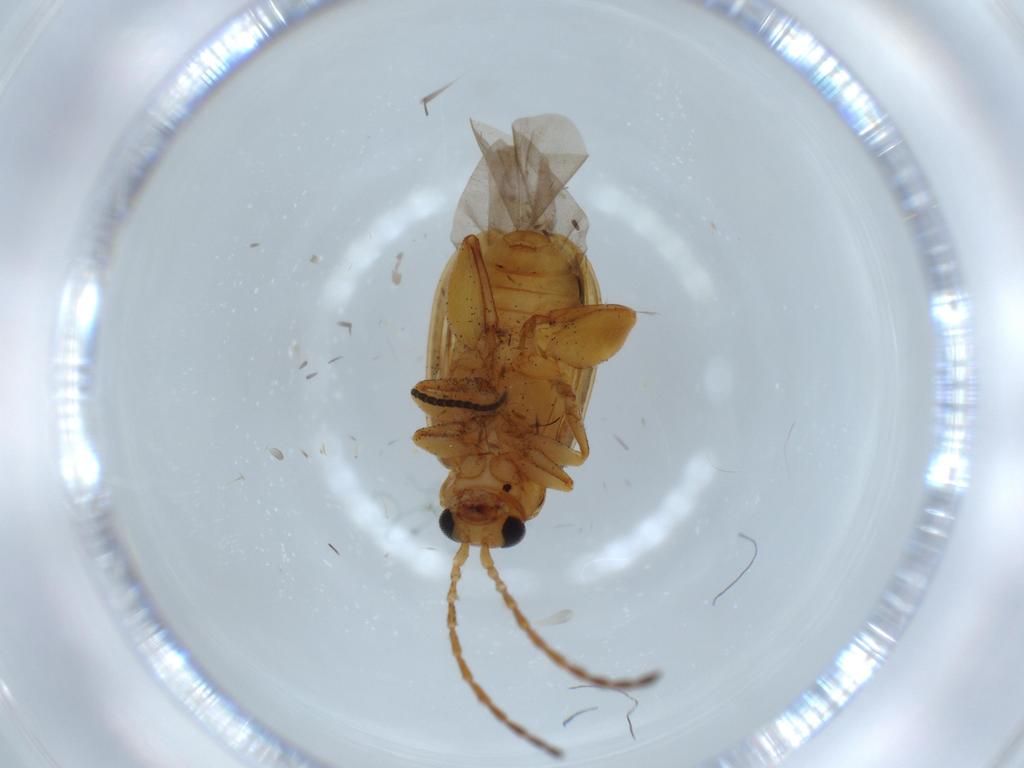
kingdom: Animalia
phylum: Arthropoda
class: Insecta
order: Coleoptera
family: Chrysomelidae
